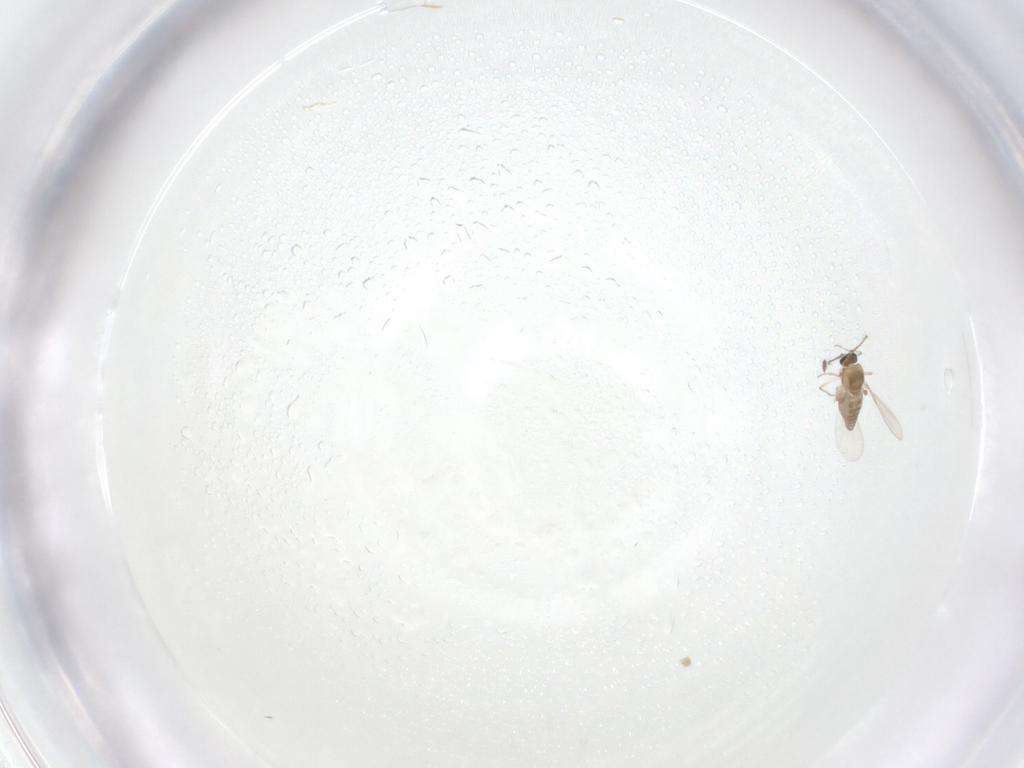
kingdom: Animalia
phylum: Arthropoda
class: Insecta
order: Diptera
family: Ceratopogonidae
